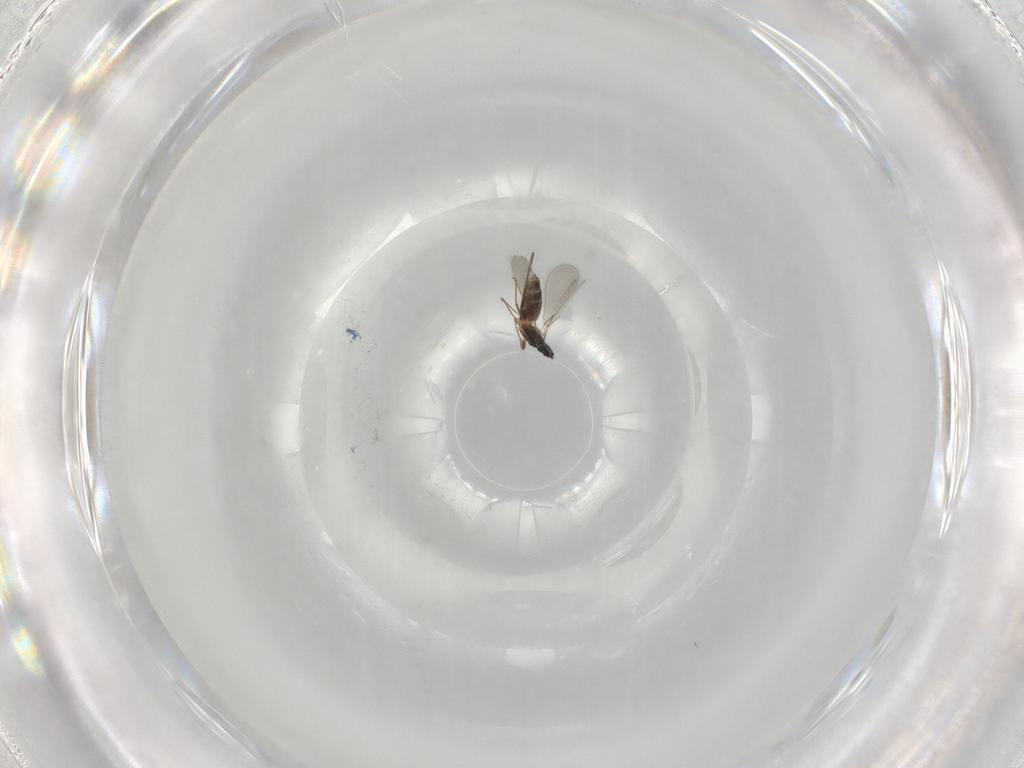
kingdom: Animalia
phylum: Arthropoda
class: Insecta
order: Hymenoptera
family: Mymaridae
